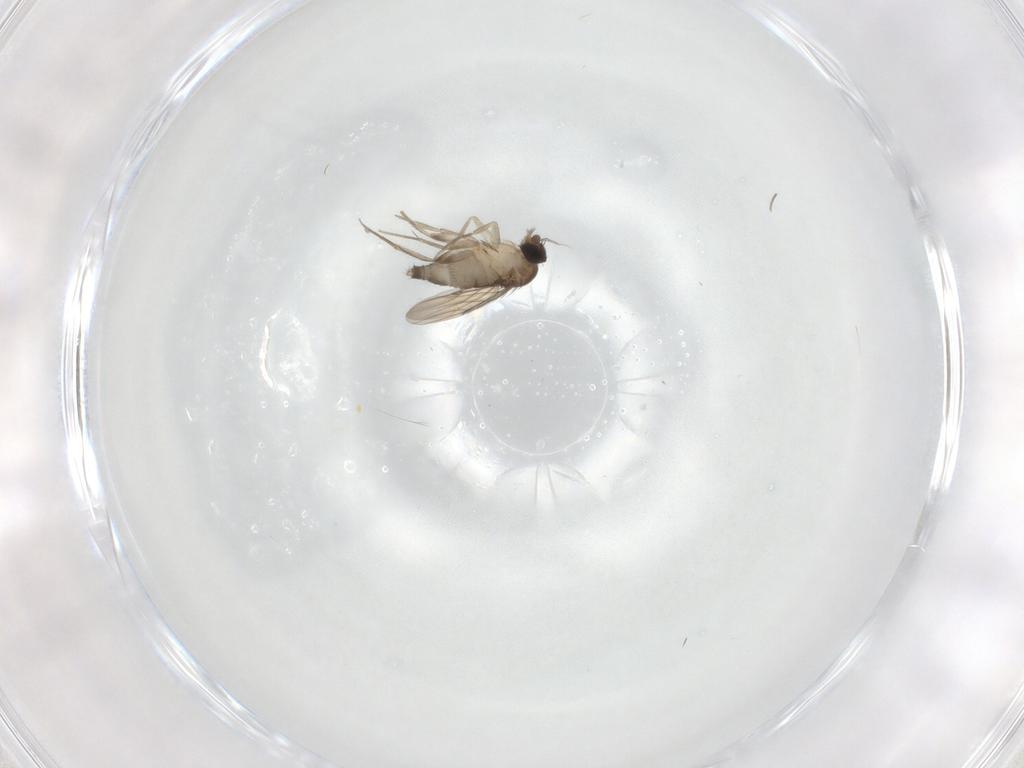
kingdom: Animalia
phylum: Arthropoda
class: Insecta
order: Diptera
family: Phoridae
